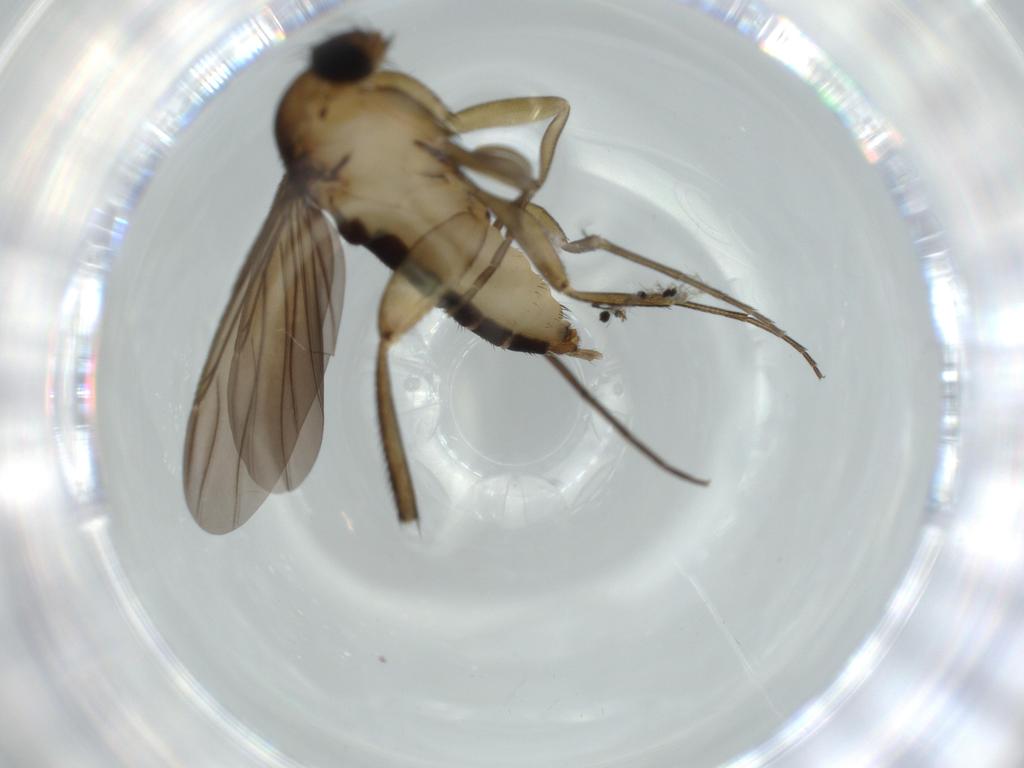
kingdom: Animalia
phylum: Arthropoda
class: Insecta
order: Diptera
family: Phoridae
